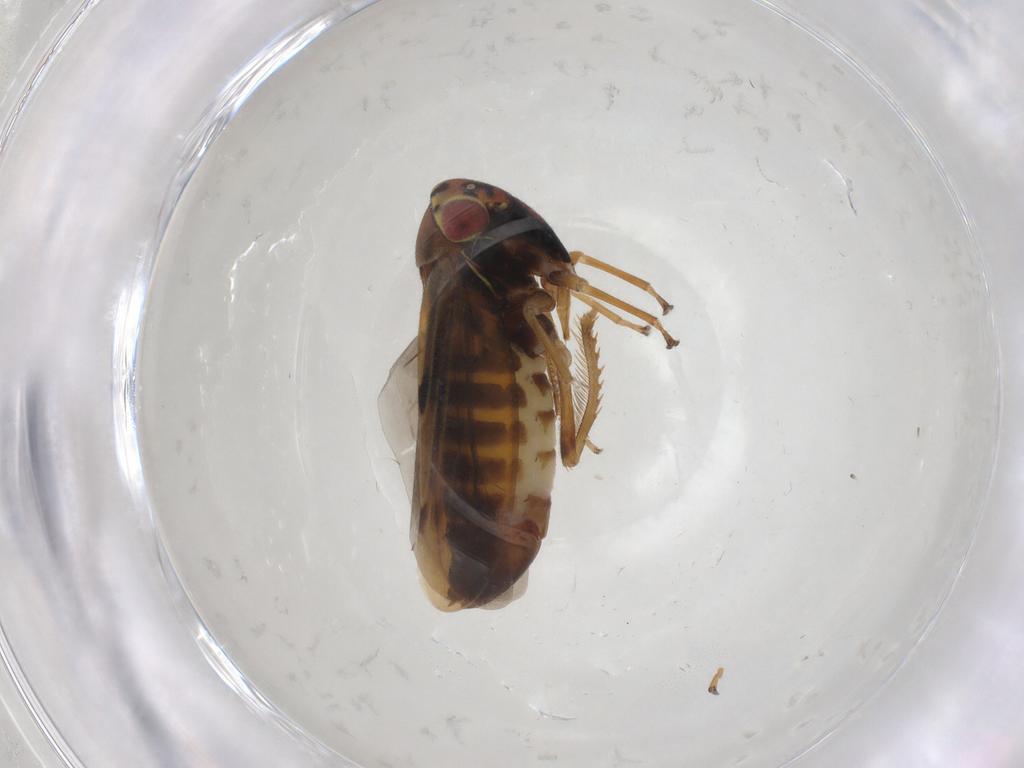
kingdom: Animalia
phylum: Arthropoda
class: Insecta
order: Hemiptera
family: Cicadellidae
